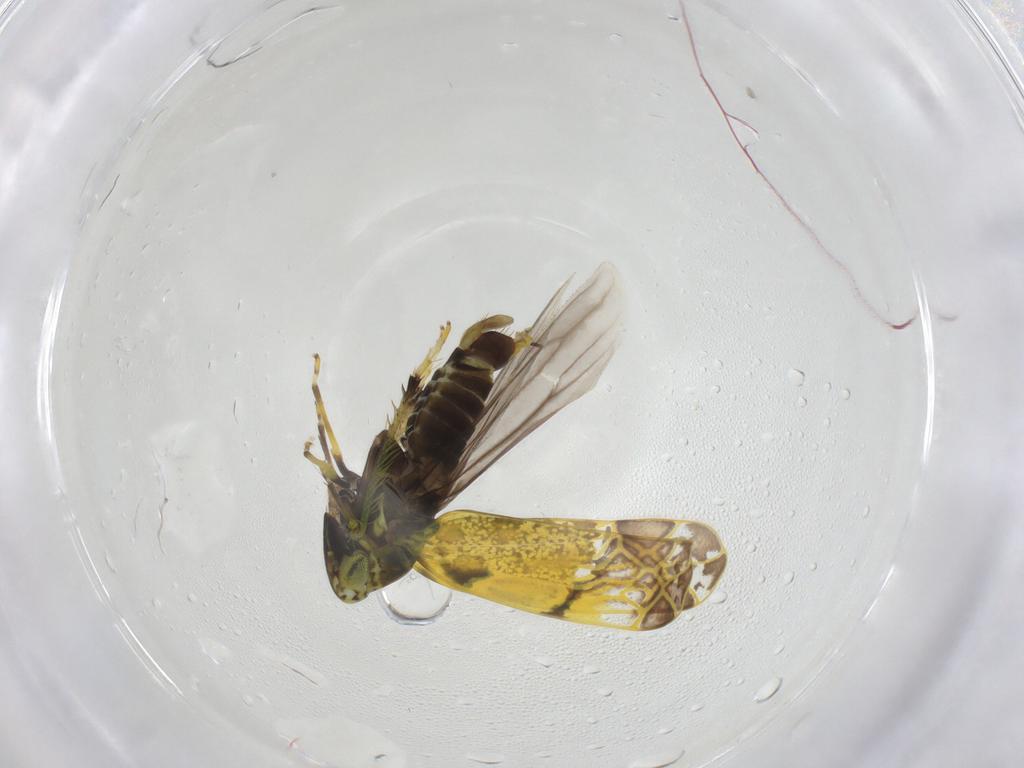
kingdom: Animalia
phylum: Arthropoda
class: Insecta
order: Hemiptera
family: Cicadellidae
